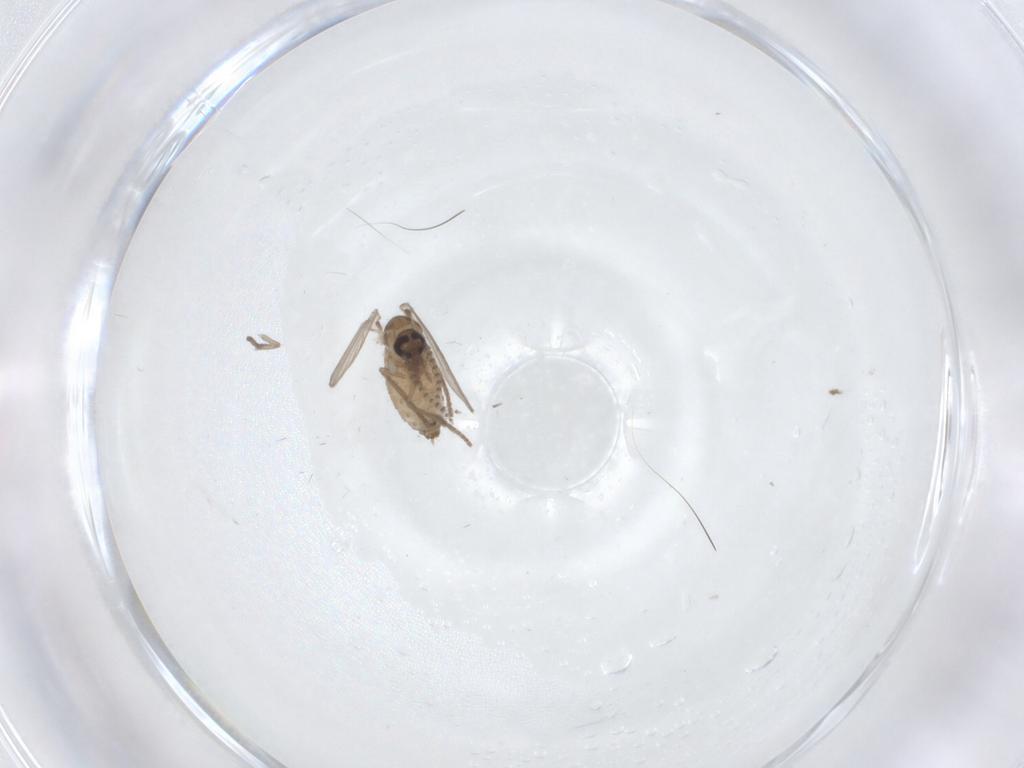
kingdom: Animalia
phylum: Arthropoda
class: Insecta
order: Diptera
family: Psychodidae
